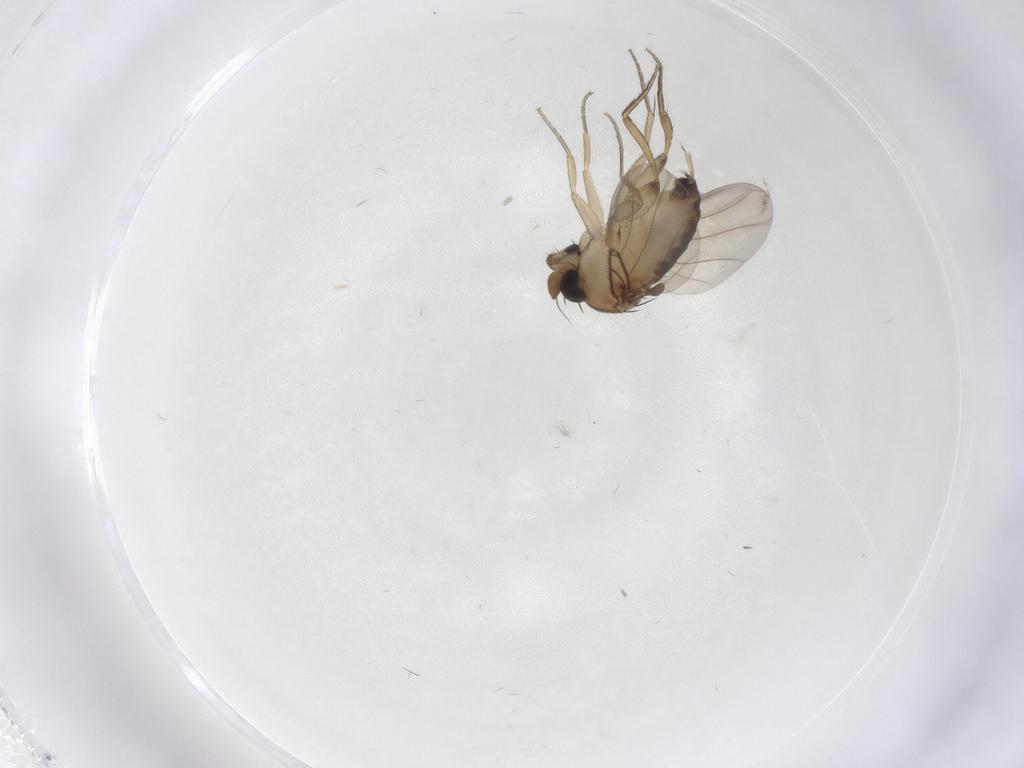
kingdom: Animalia
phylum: Arthropoda
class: Insecta
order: Diptera
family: Phoridae
